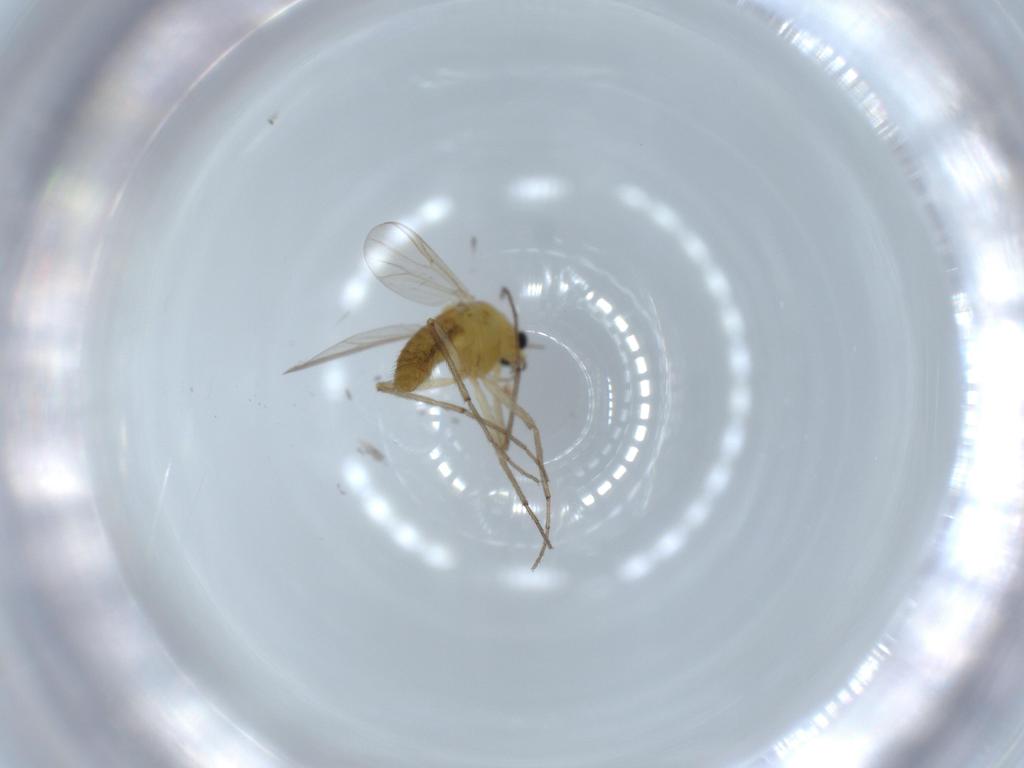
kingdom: Animalia
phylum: Arthropoda
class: Insecta
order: Diptera
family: Chironomidae
